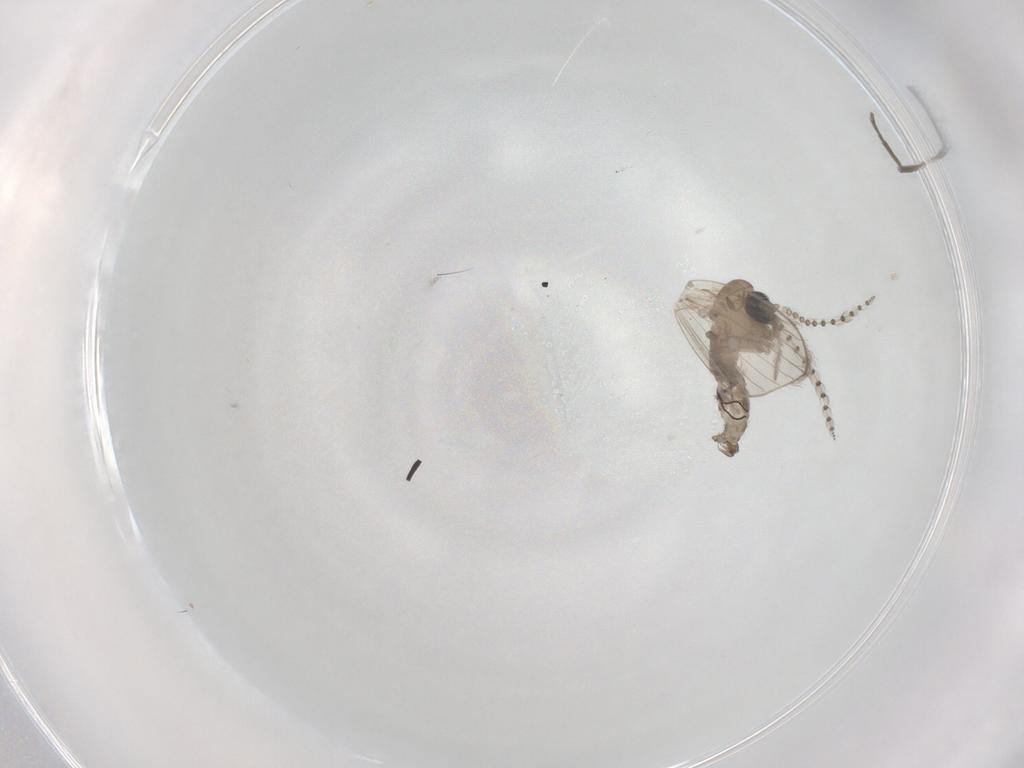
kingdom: Animalia
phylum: Arthropoda
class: Insecta
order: Diptera
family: Psychodidae
